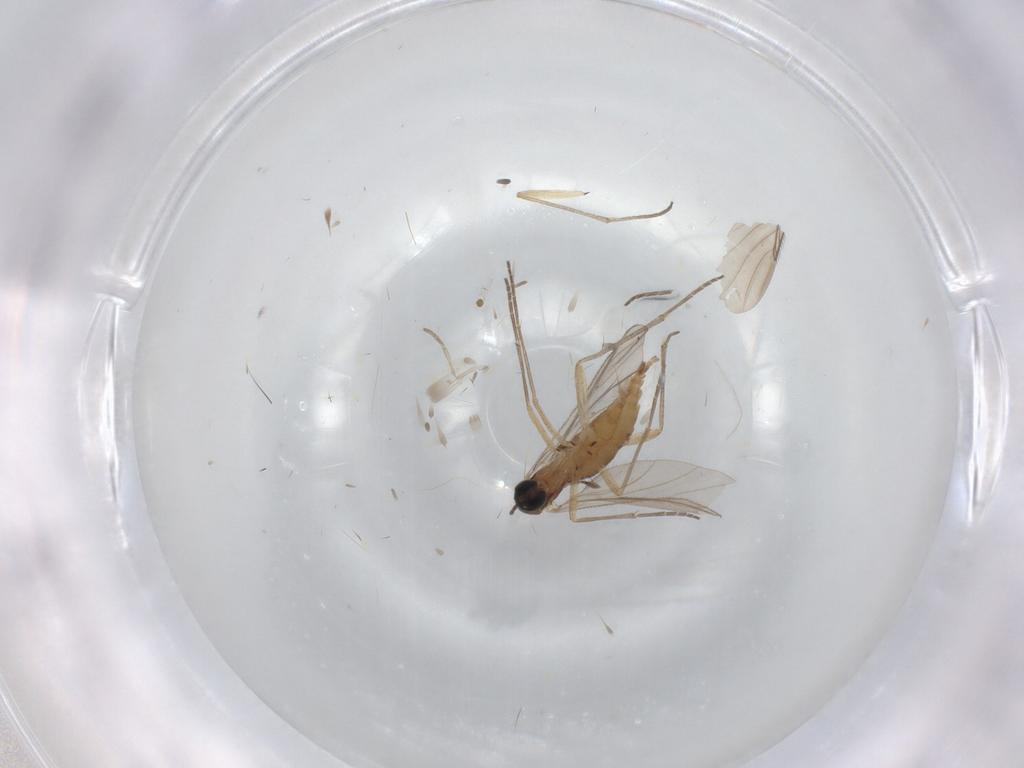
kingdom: Animalia
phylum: Arthropoda
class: Insecta
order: Diptera
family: Sciaridae
